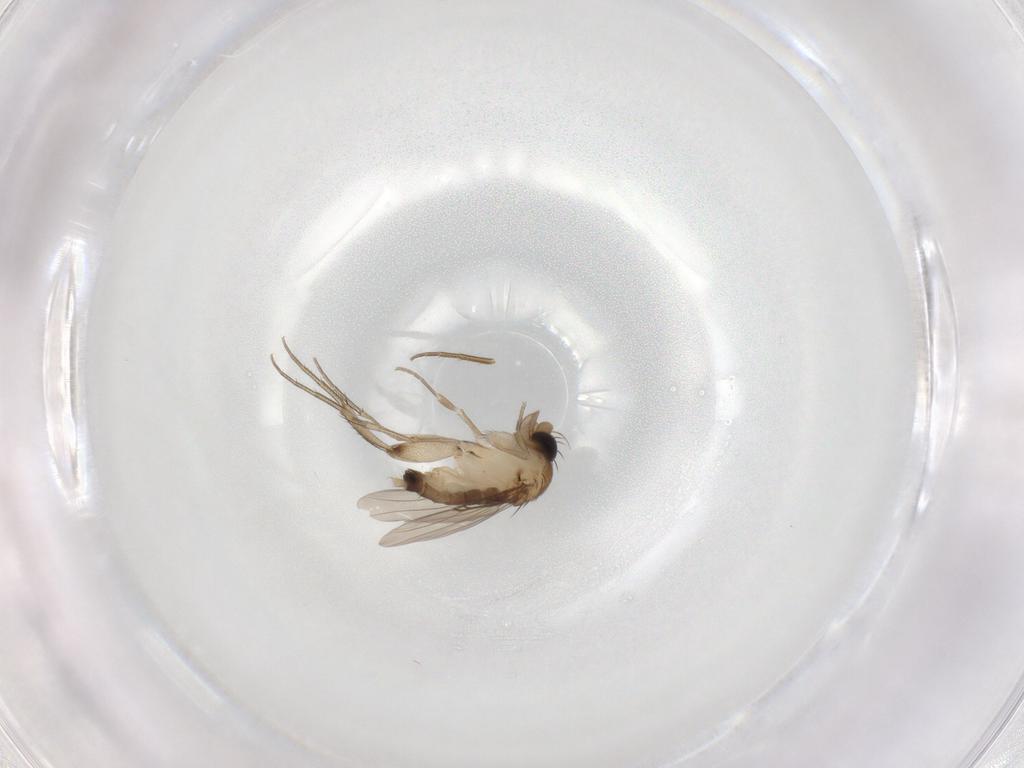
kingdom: Animalia
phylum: Arthropoda
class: Insecta
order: Diptera
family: Phoridae
